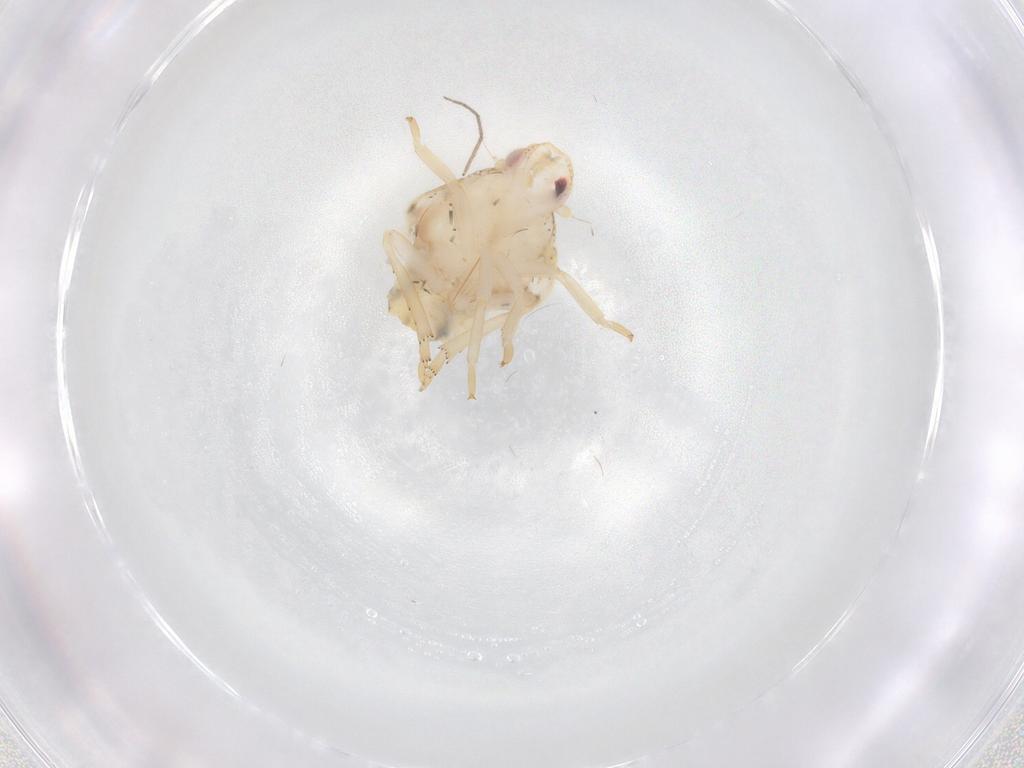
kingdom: Animalia
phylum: Arthropoda
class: Insecta
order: Hemiptera
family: Flatidae
